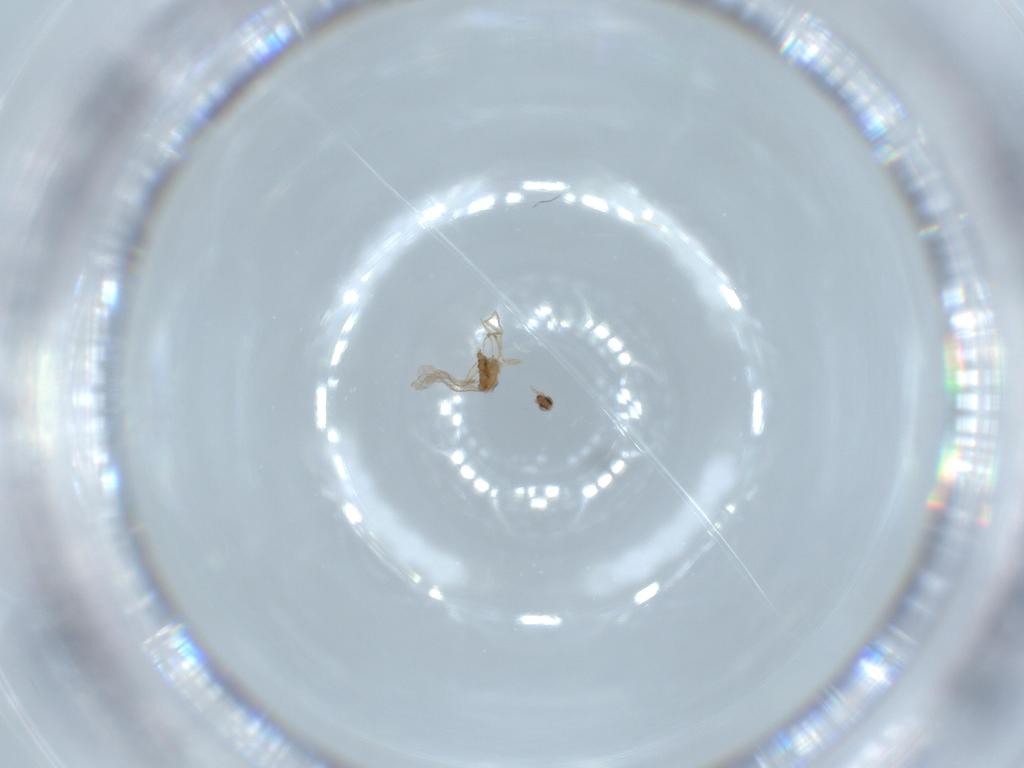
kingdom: Animalia
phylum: Arthropoda
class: Insecta
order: Diptera
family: Cecidomyiidae
